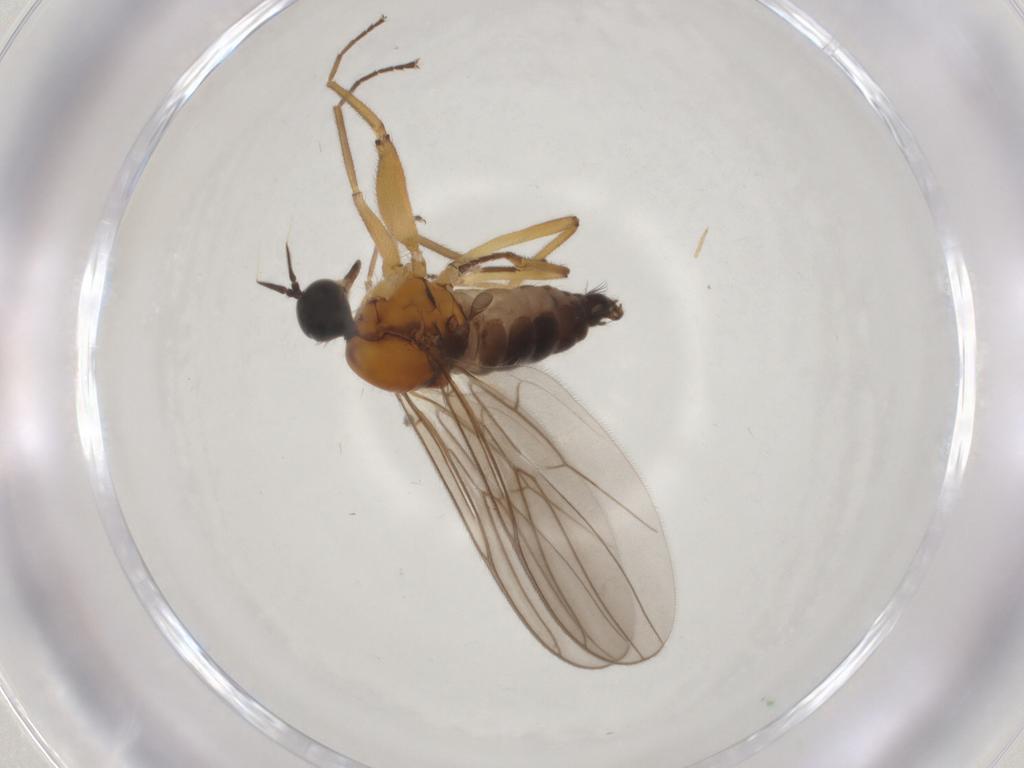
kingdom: Animalia
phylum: Arthropoda
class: Insecta
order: Diptera
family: Hybotidae
